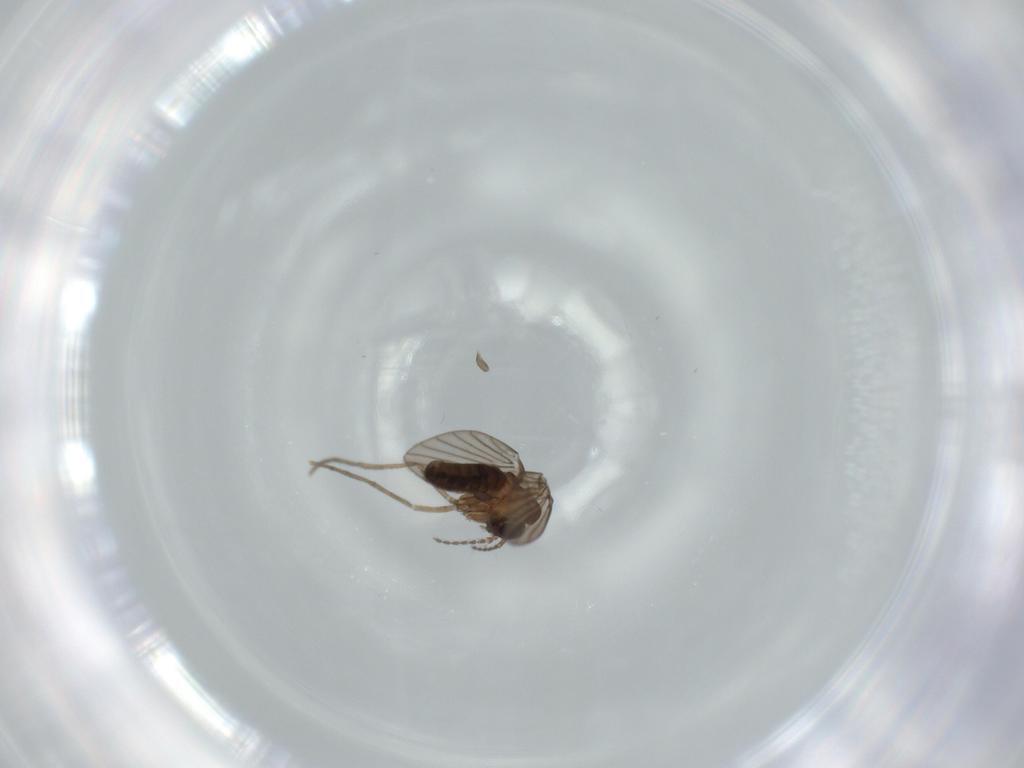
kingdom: Animalia
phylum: Arthropoda
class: Insecta
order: Diptera
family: Psychodidae
